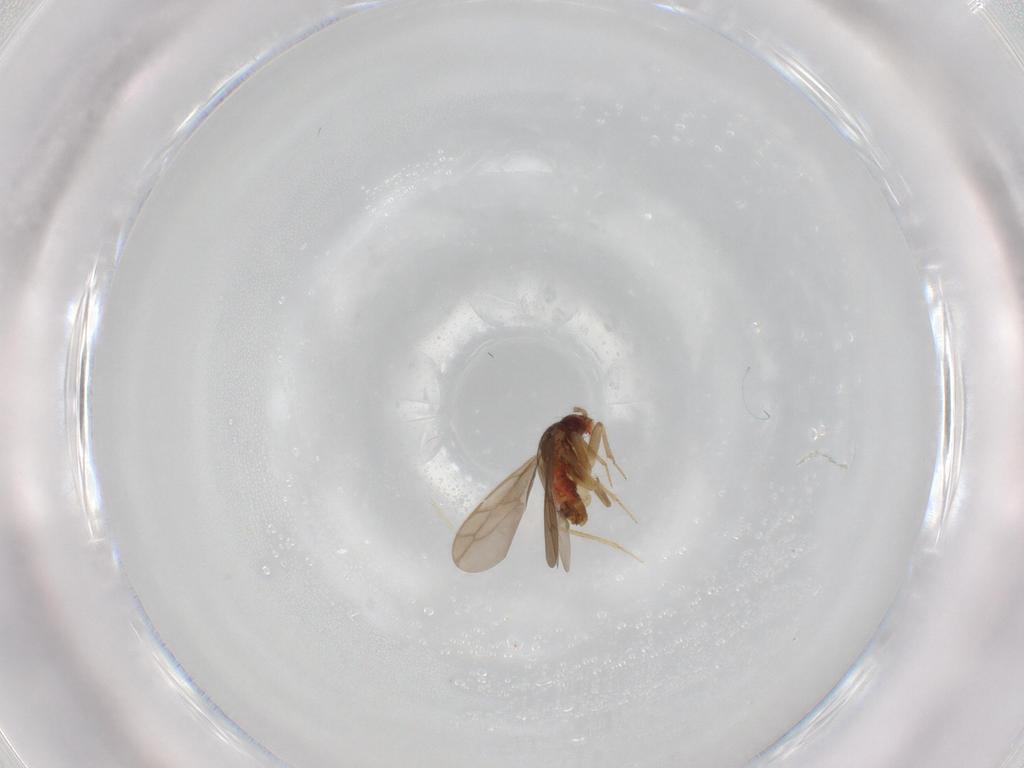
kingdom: Animalia
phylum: Arthropoda
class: Insecta
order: Hemiptera
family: Ceratocombidae
